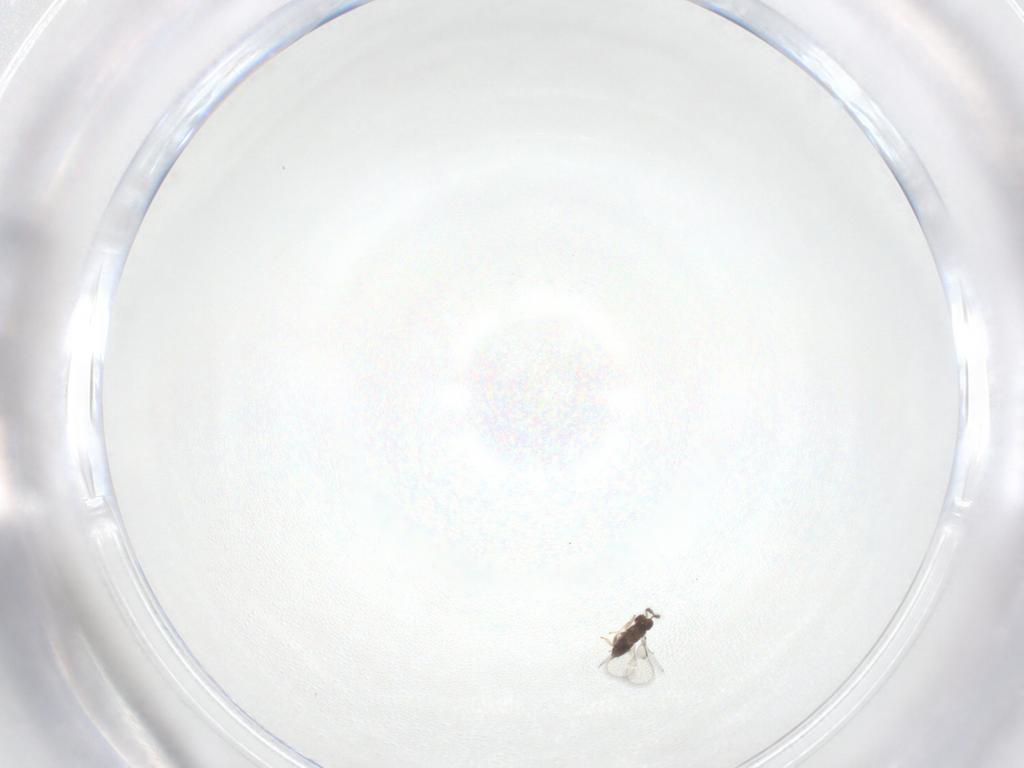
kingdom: Animalia
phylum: Arthropoda
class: Insecta
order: Hymenoptera
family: Trichogrammatidae
